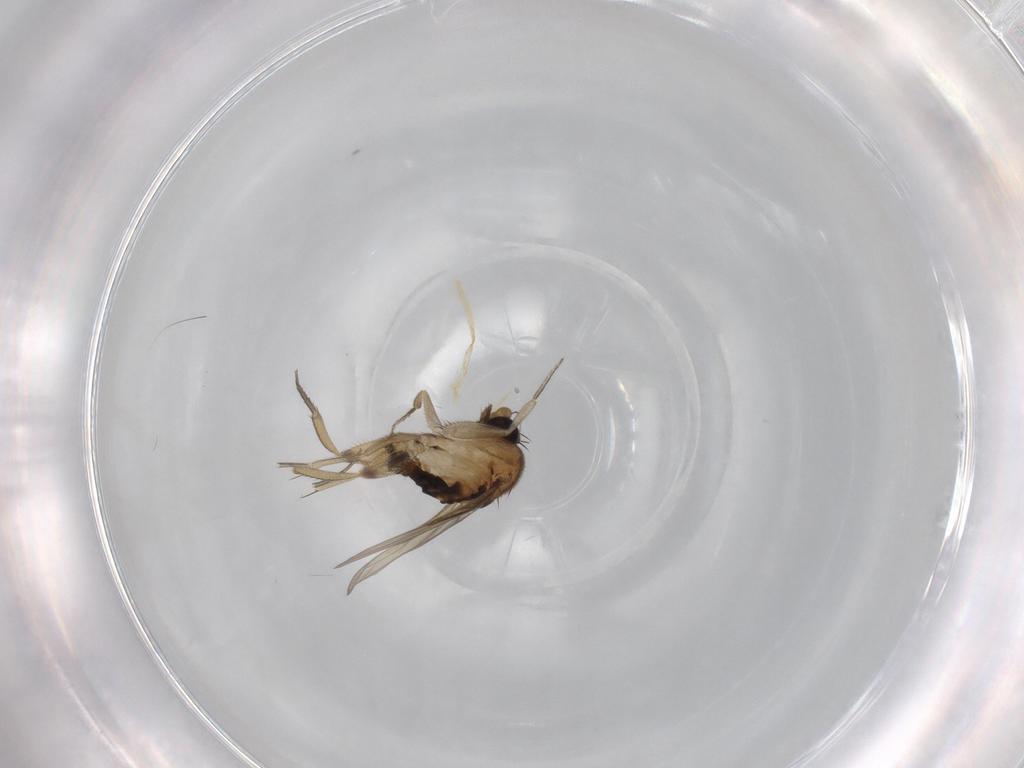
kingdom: Animalia
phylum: Arthropoda
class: Insecta
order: Diptera
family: Phoridae
